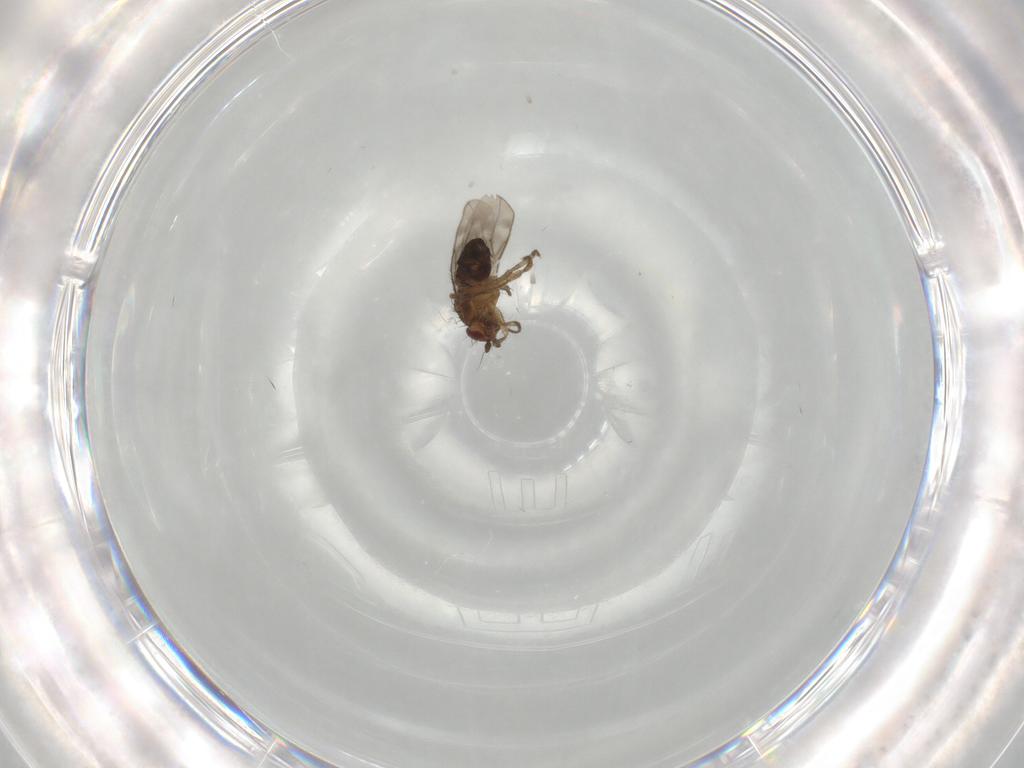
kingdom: Animalia
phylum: Arthropoda
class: Insecta
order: Diptera
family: Sphaeroceridae
